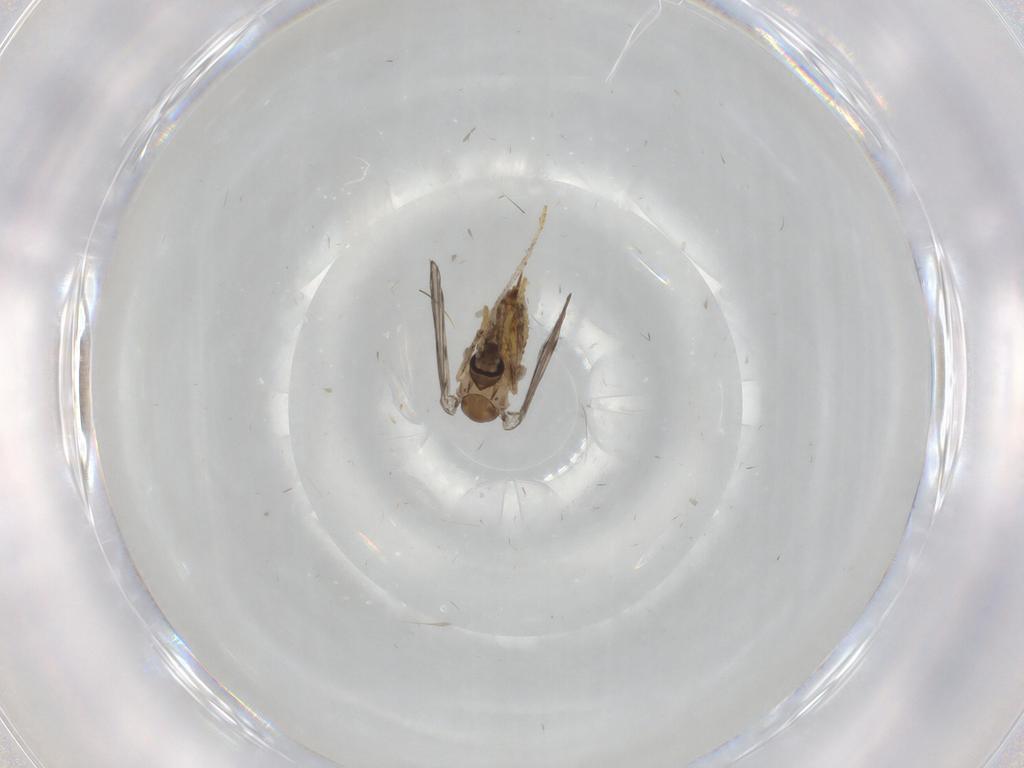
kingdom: Animalia
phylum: Arthropoda
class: Insecta
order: Diptera
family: Psychodidae
